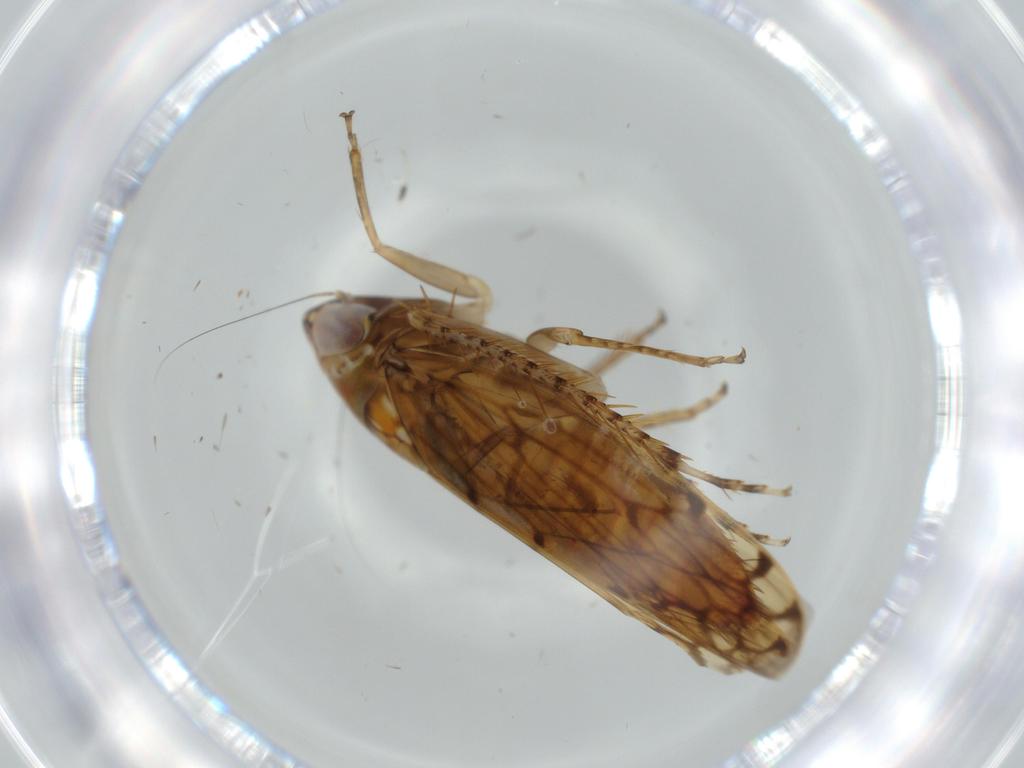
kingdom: Animalia
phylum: Arthropoda
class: Insecta
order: Hemiptera
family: Cicadellidae
